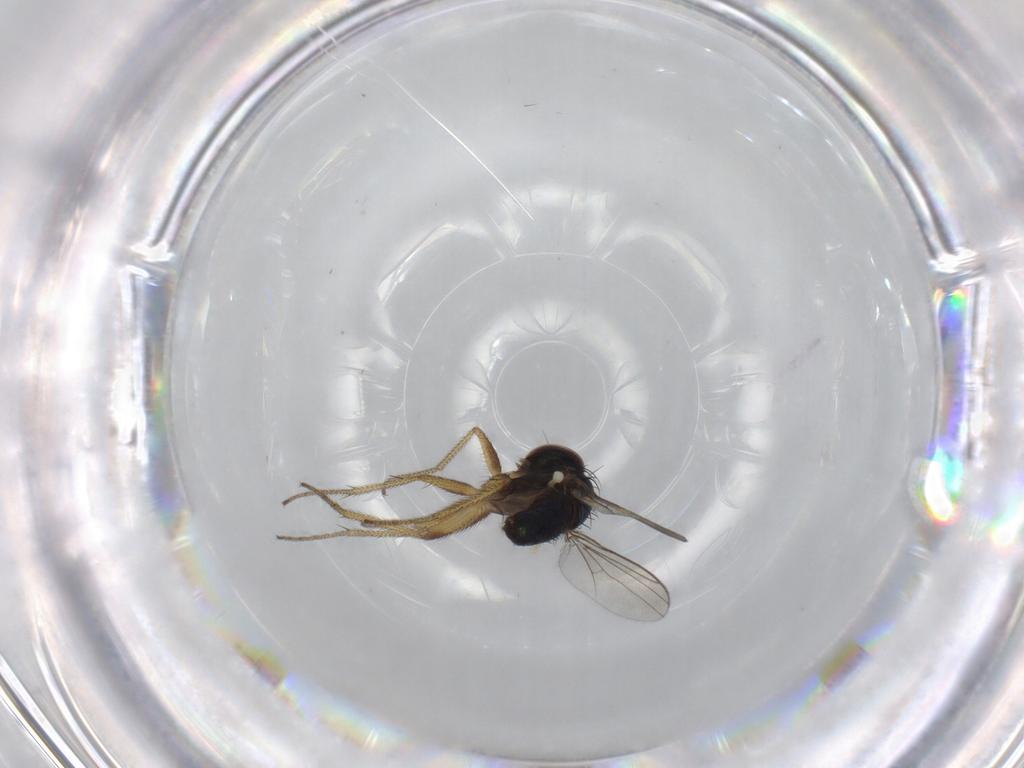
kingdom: Animalia
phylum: Arthropoda
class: Insecta
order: Diptera
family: Dolichopodidae
